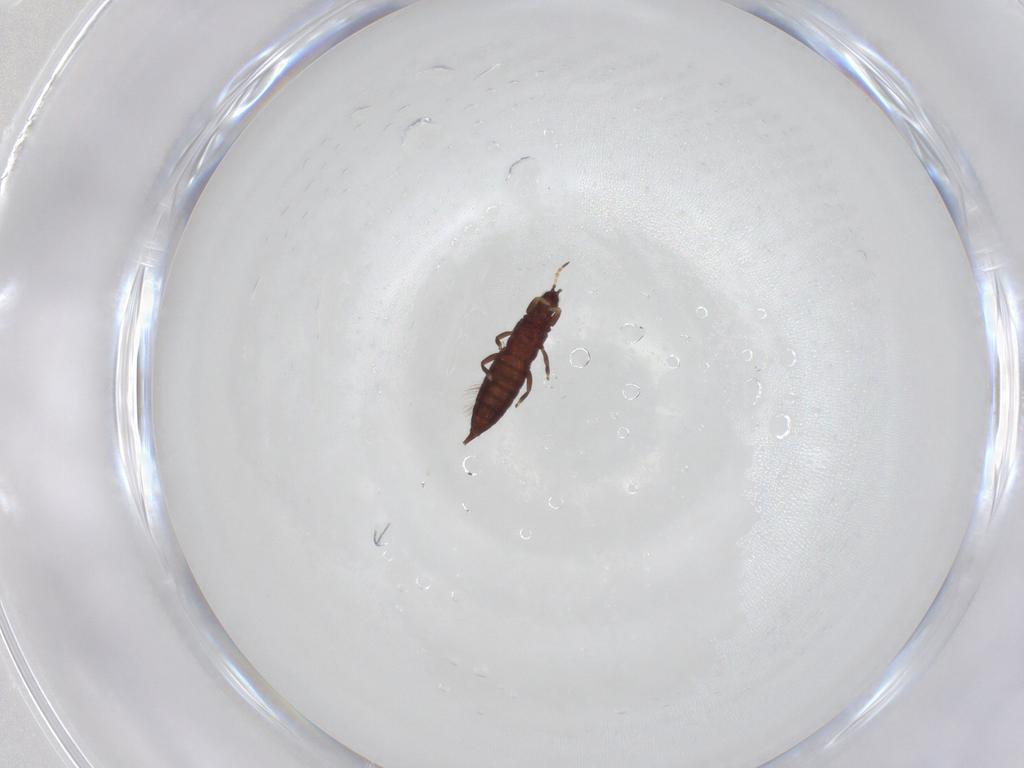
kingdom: Animalia
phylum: Arthropoda
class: Insecta
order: Thysanoptera
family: Phlaeothripidae
